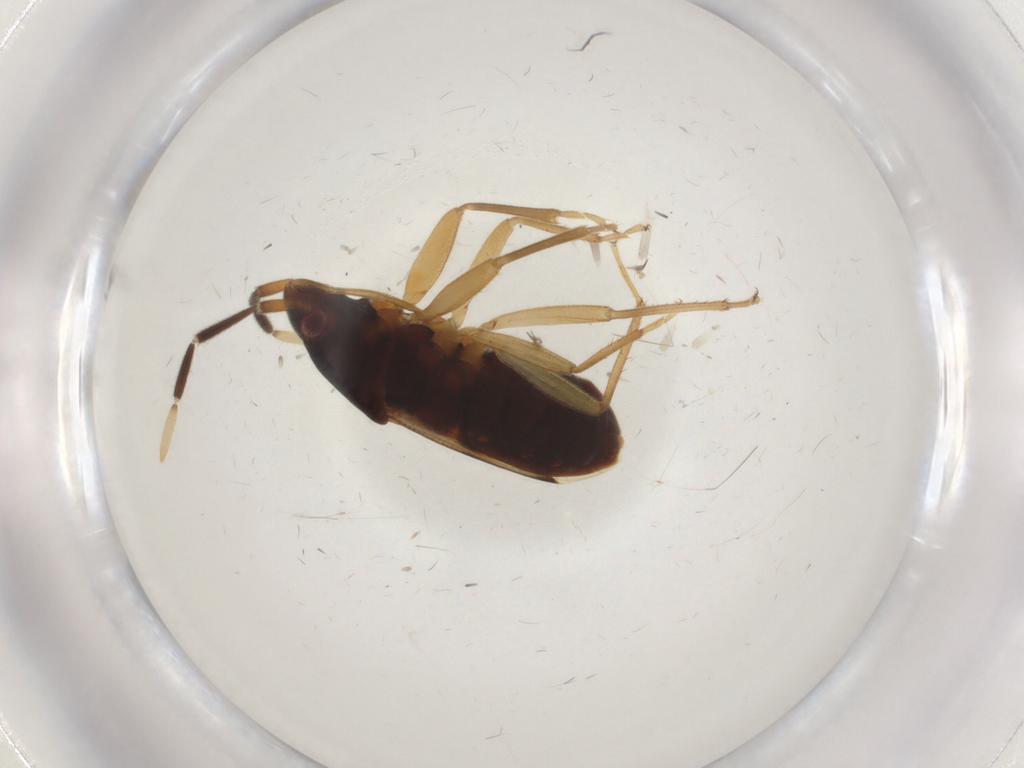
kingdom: Animalia
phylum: Arthropoda
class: Insecta
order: Hemiptera
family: Rhyparochromidae
